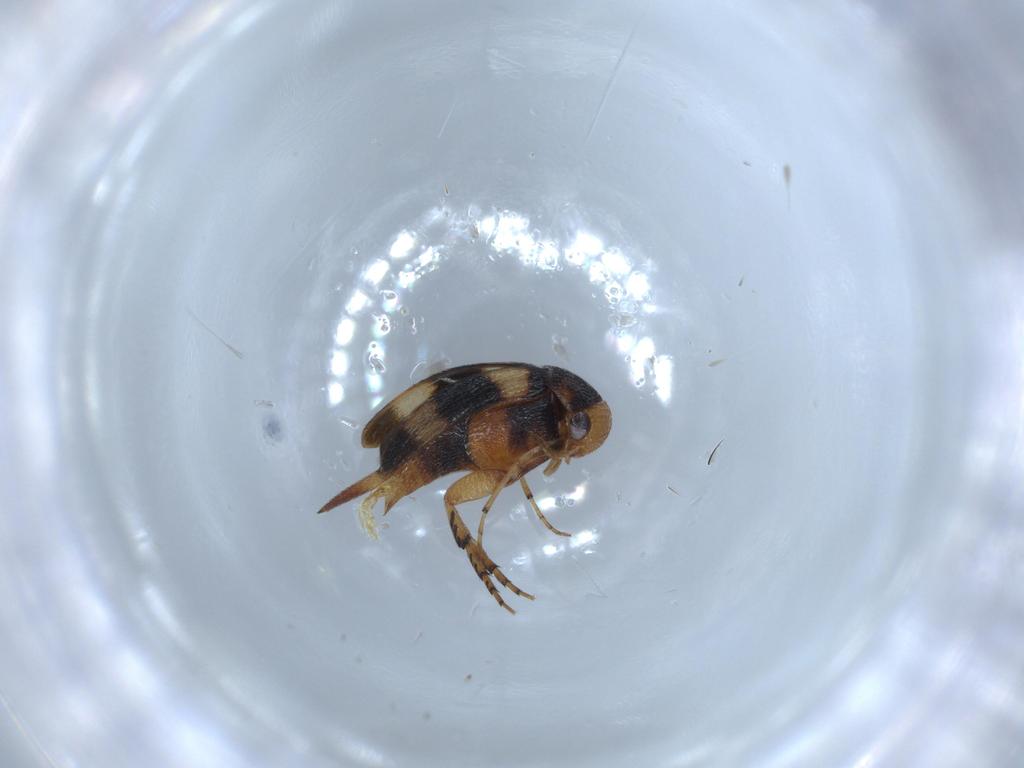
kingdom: Animalia
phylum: Arthropoda
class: Insecta
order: Coleoptera
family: Mordellidae
